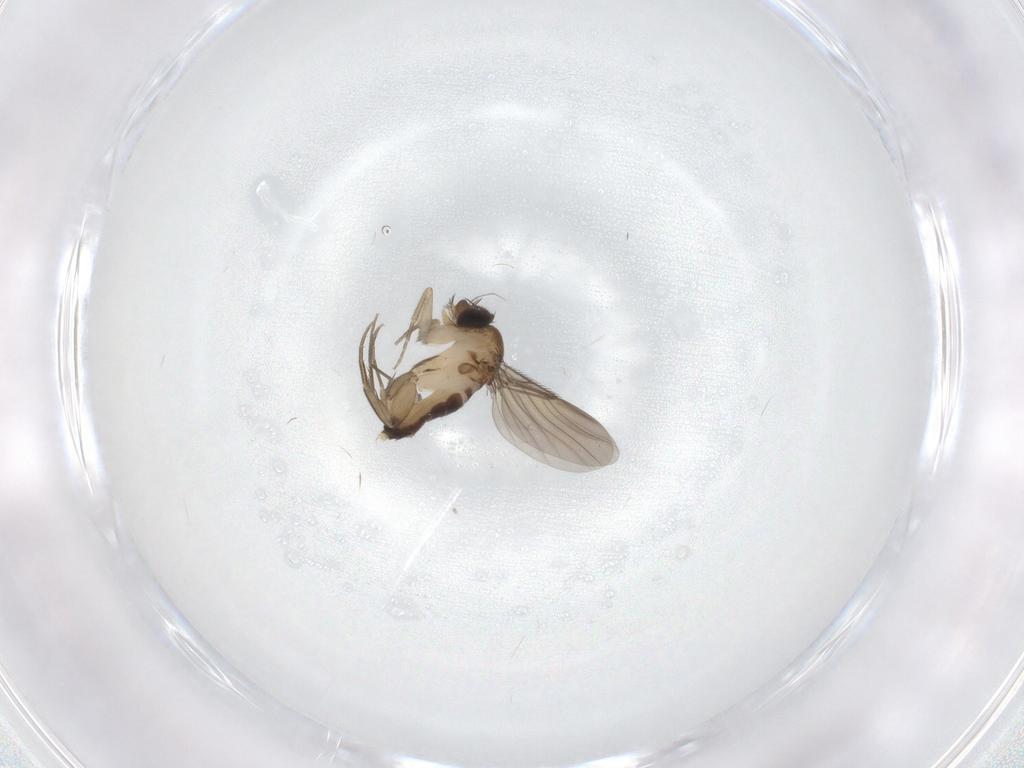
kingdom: Animalia
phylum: Arthropoda
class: Insecta
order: Diptera
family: Phoridae
